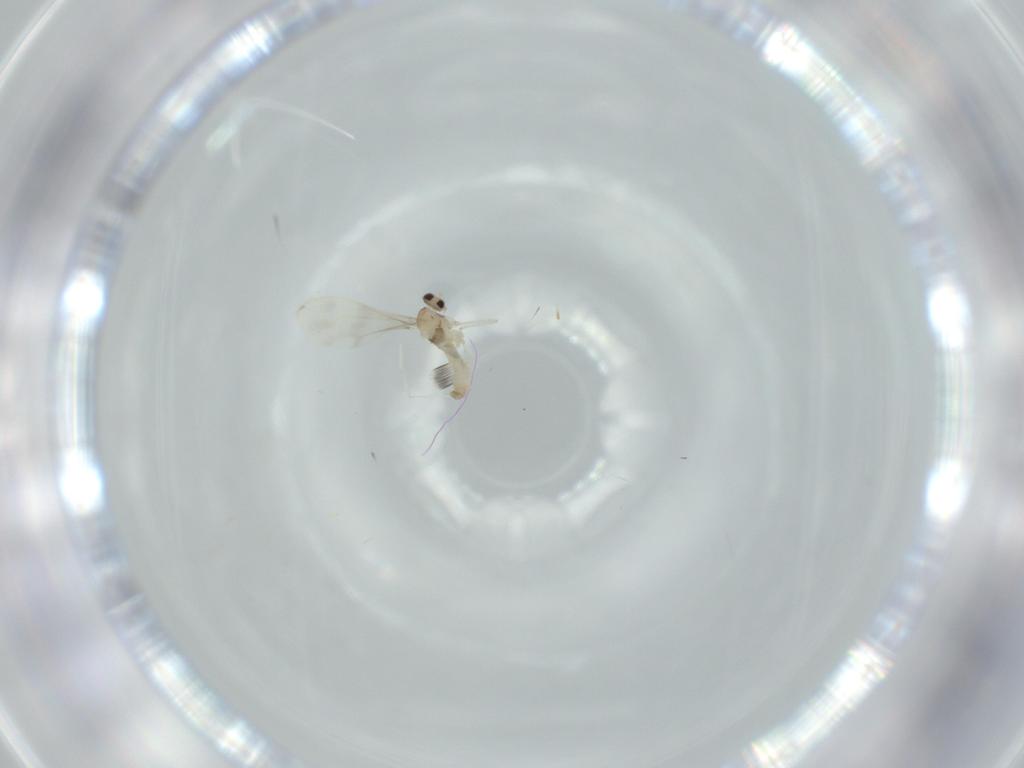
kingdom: Animalia
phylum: Arthropoda
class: Insecta
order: Diptera
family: Cecidomyiidae
